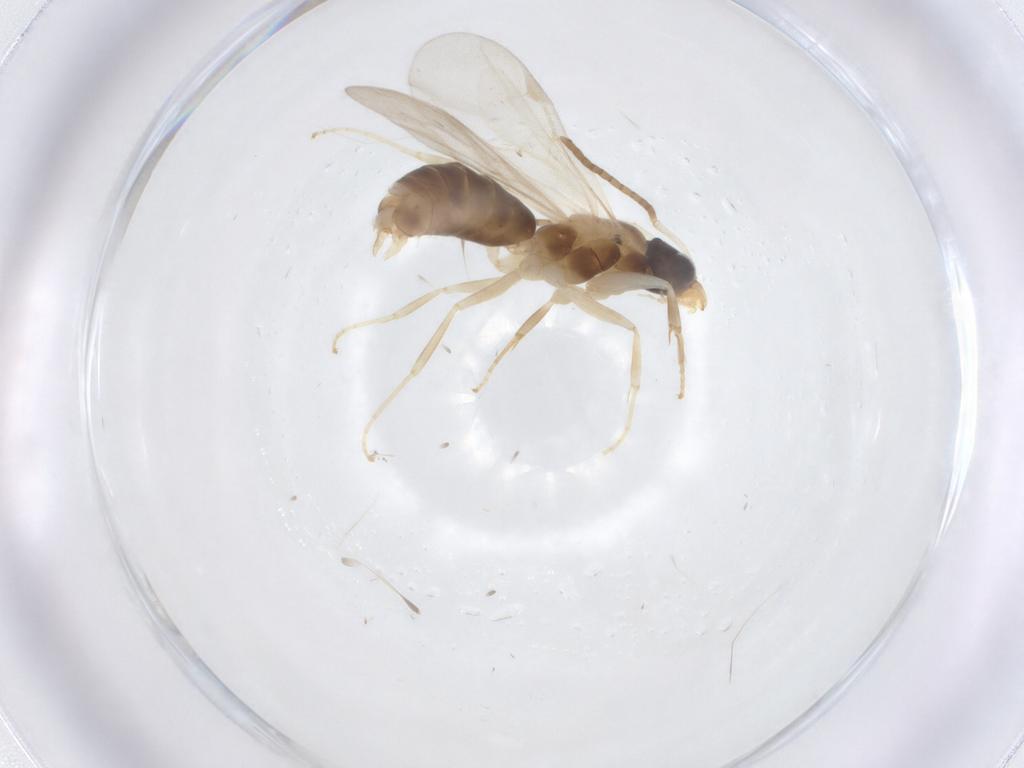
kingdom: Animalia
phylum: Arthropoda
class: Insecta
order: Hymenoptera
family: Formicidae
